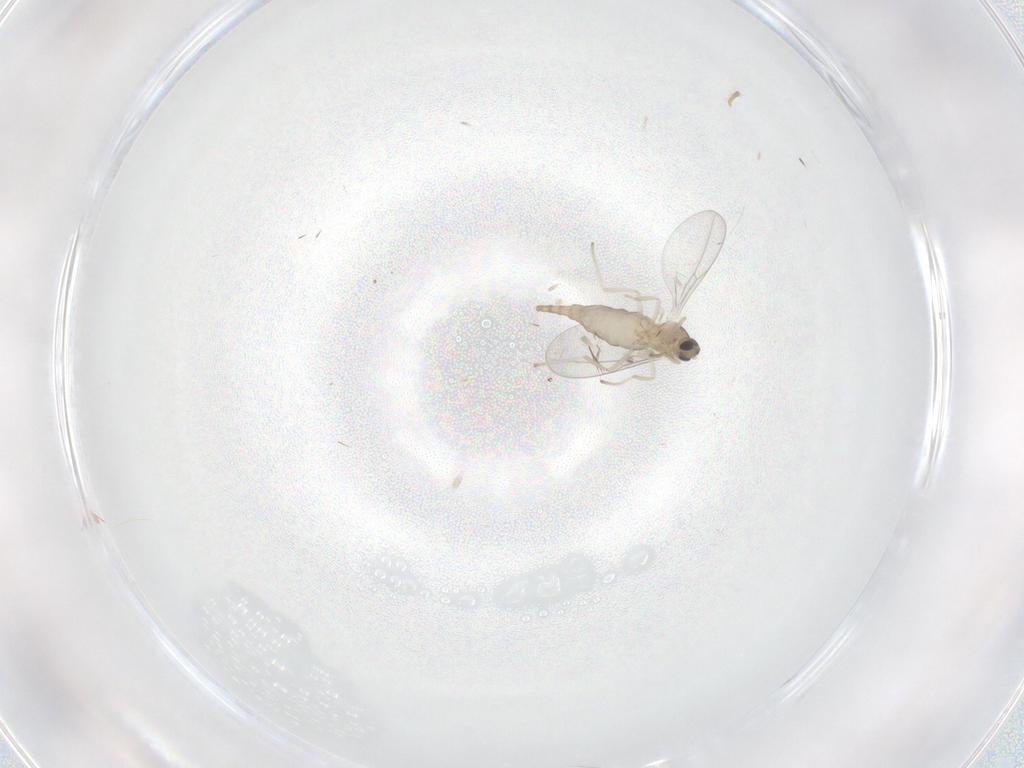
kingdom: Animalia
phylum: Arthropoda
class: Insecta
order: Diptera
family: Cecidomyiidae
